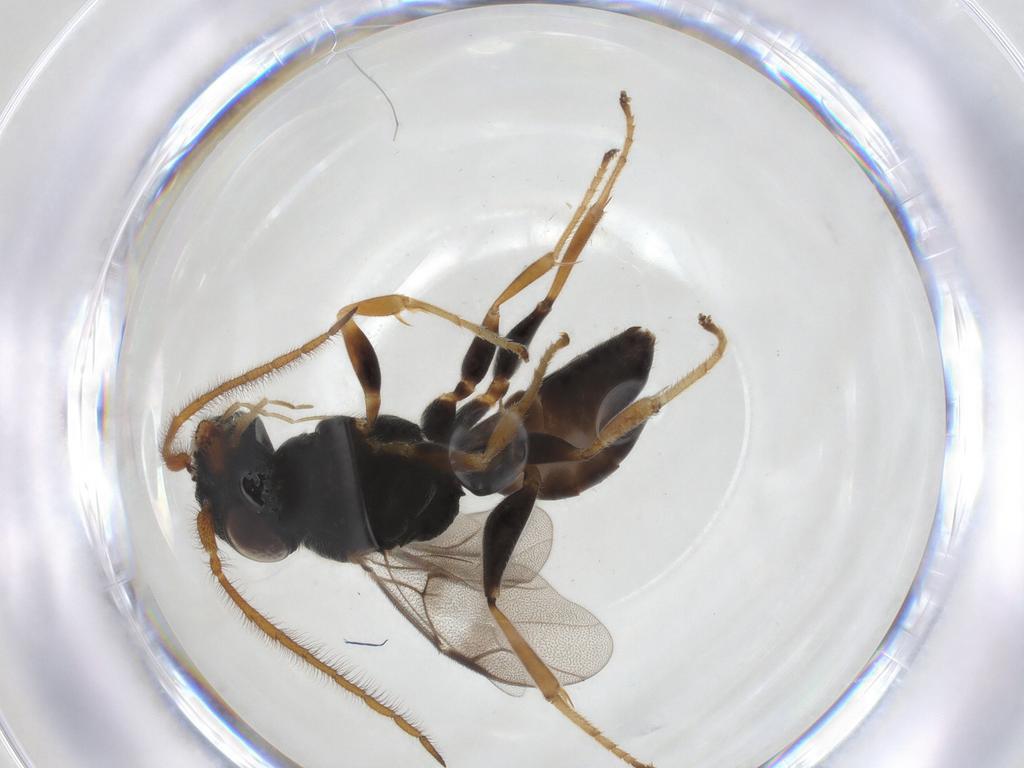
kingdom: Animalia
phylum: Arthropoda
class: Insecta
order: Hymenoptera
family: Dryinidae
